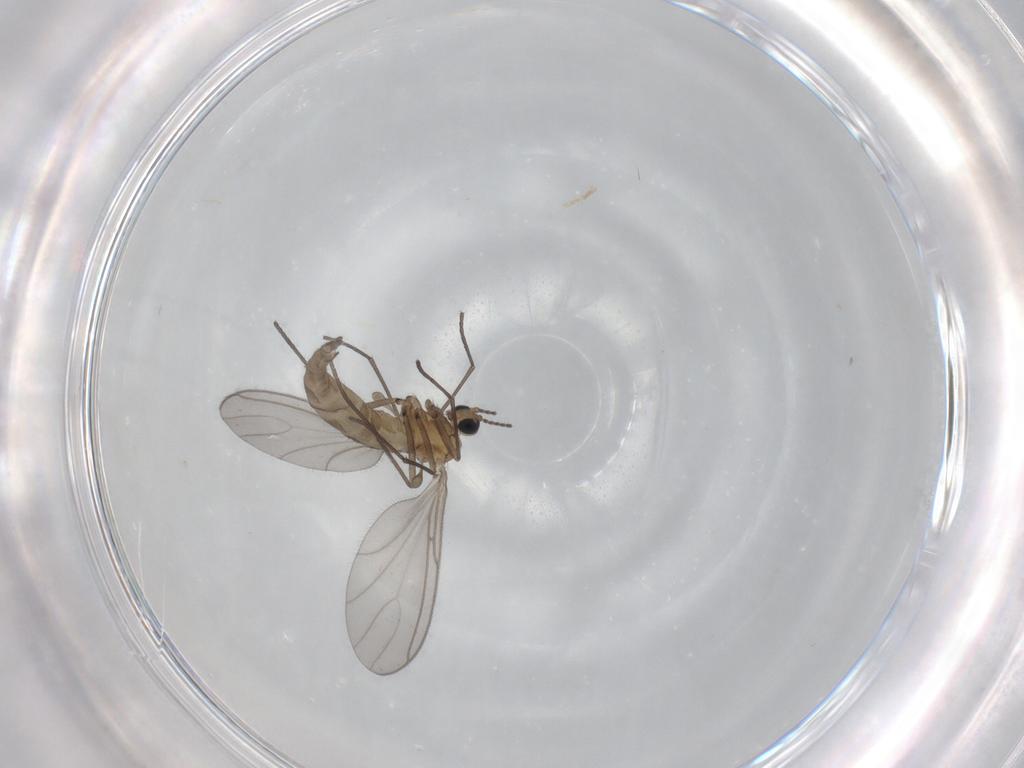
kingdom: Animalia
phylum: Arthropoda
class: Insecta
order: Diptera
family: Sciaridae
